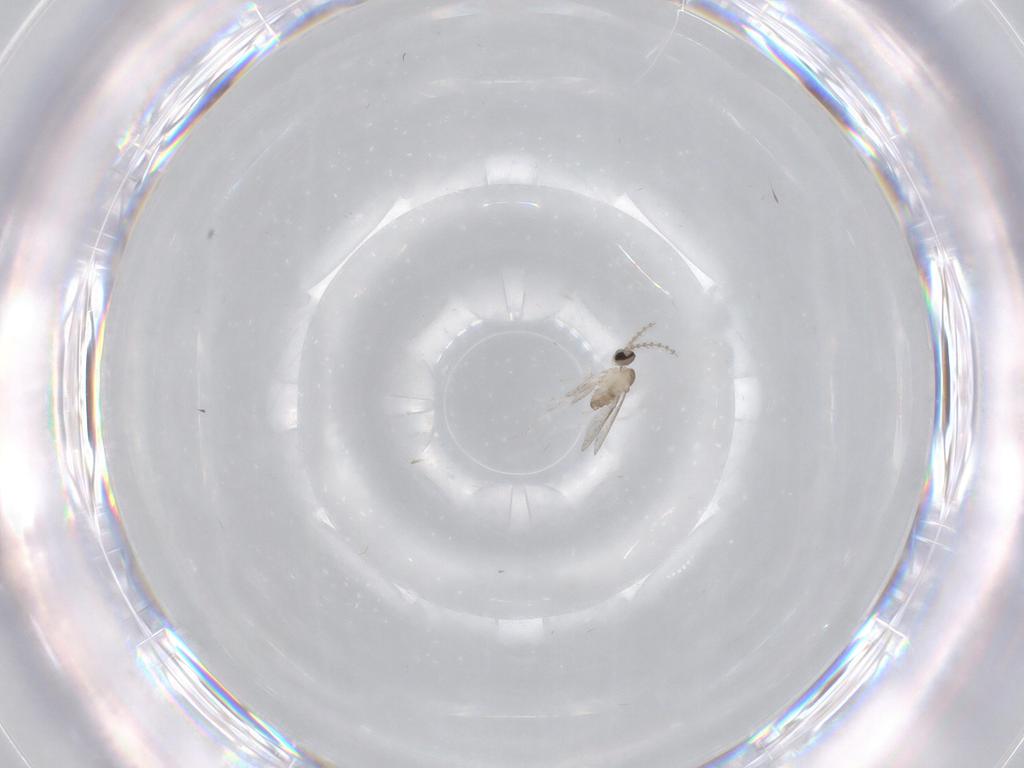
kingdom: Animalia
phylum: Arthropoda
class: Insecta
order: Diptera
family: Cecidomyiidae
